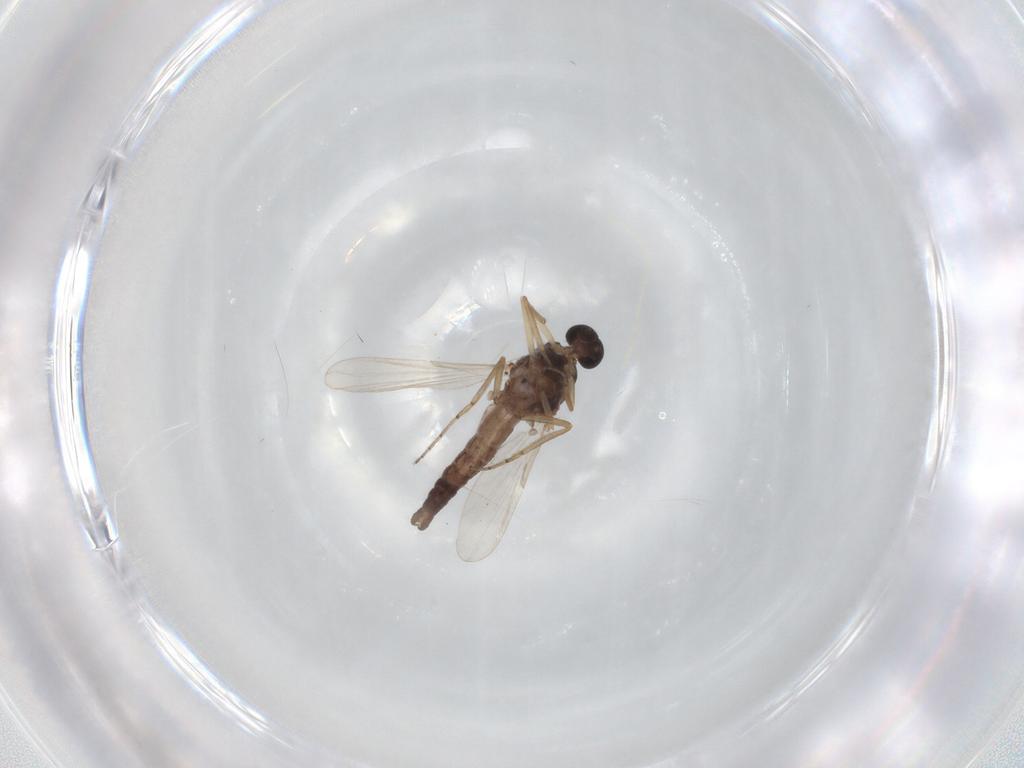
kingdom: Animalia
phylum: Arthropoda
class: Insecta
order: Diptera
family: Ceratopogonidae
